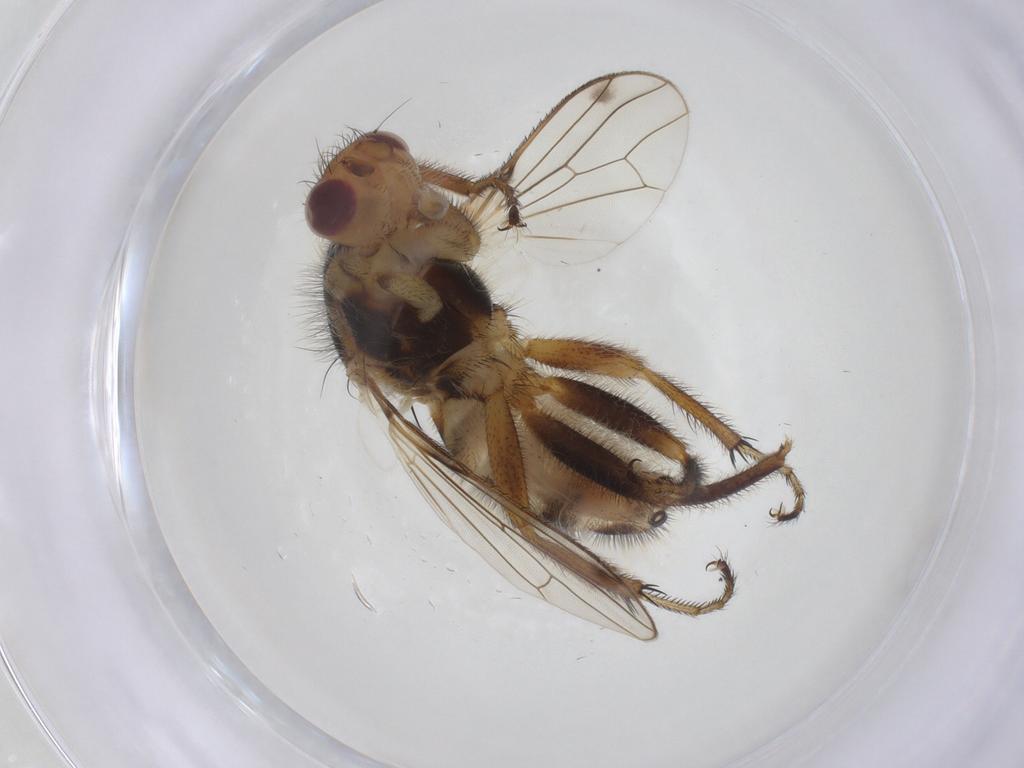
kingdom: Animalia
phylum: Arthropoda
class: Insecta
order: Diptera
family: Richardiidae
